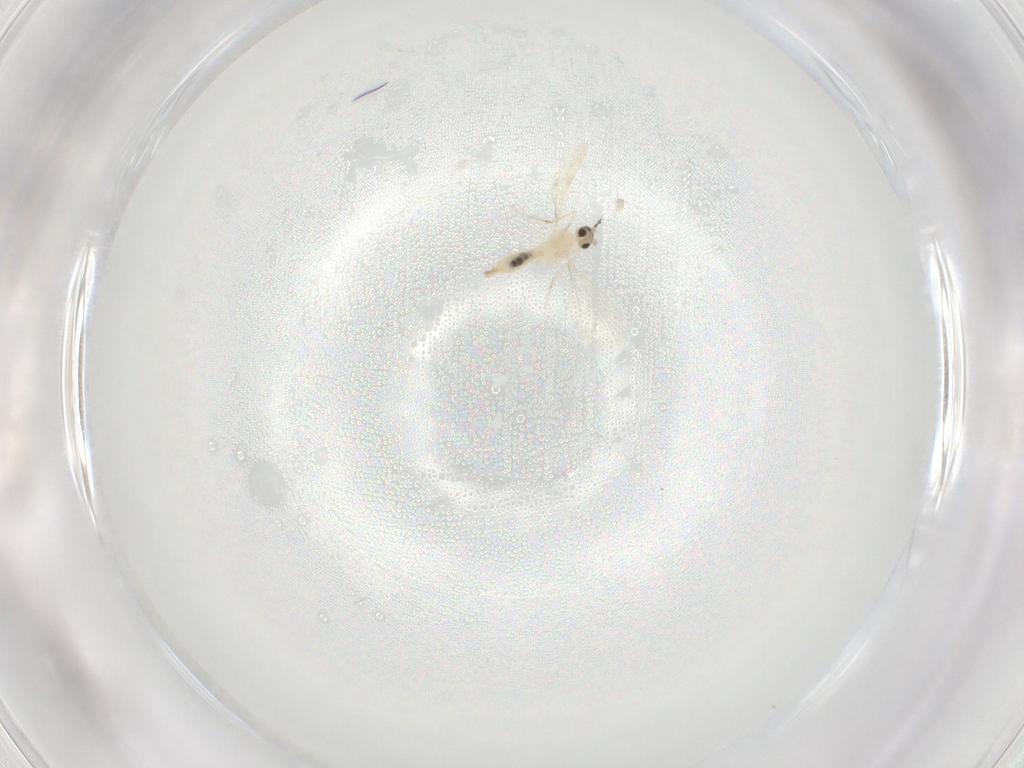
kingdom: Animalia
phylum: Arthropoda
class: Insecta
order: Diptera
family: Cecidomyiidae
